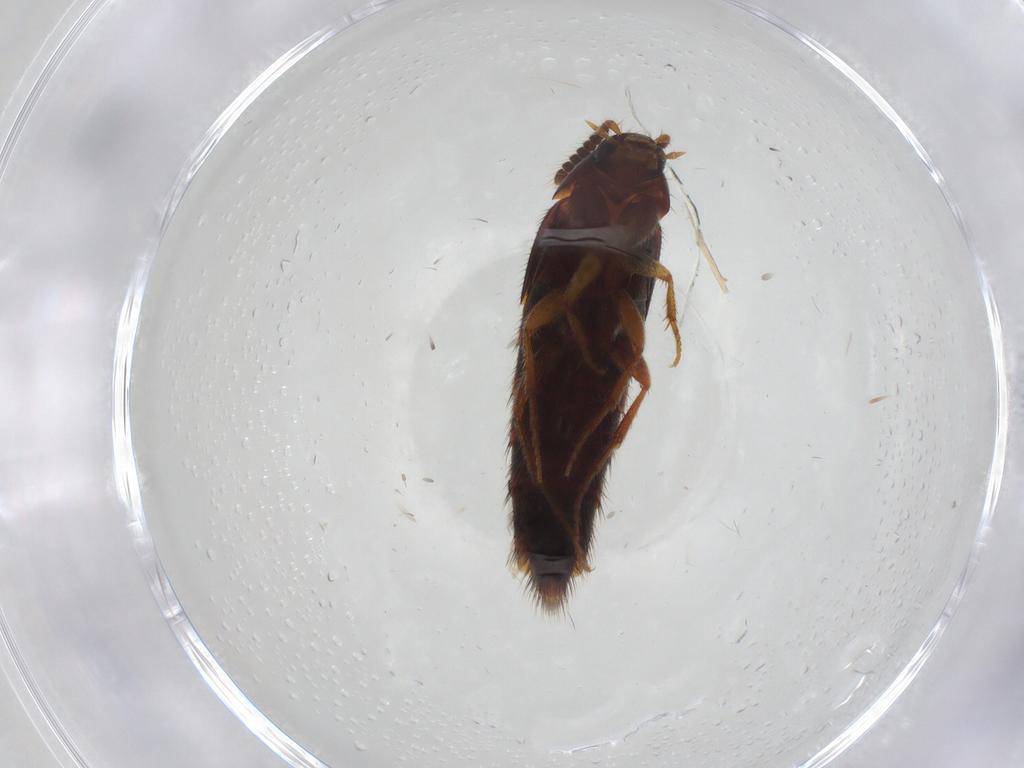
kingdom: Animalia
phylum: Arthropoda
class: Insecta
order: Coleoptera
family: Staphylinidae
